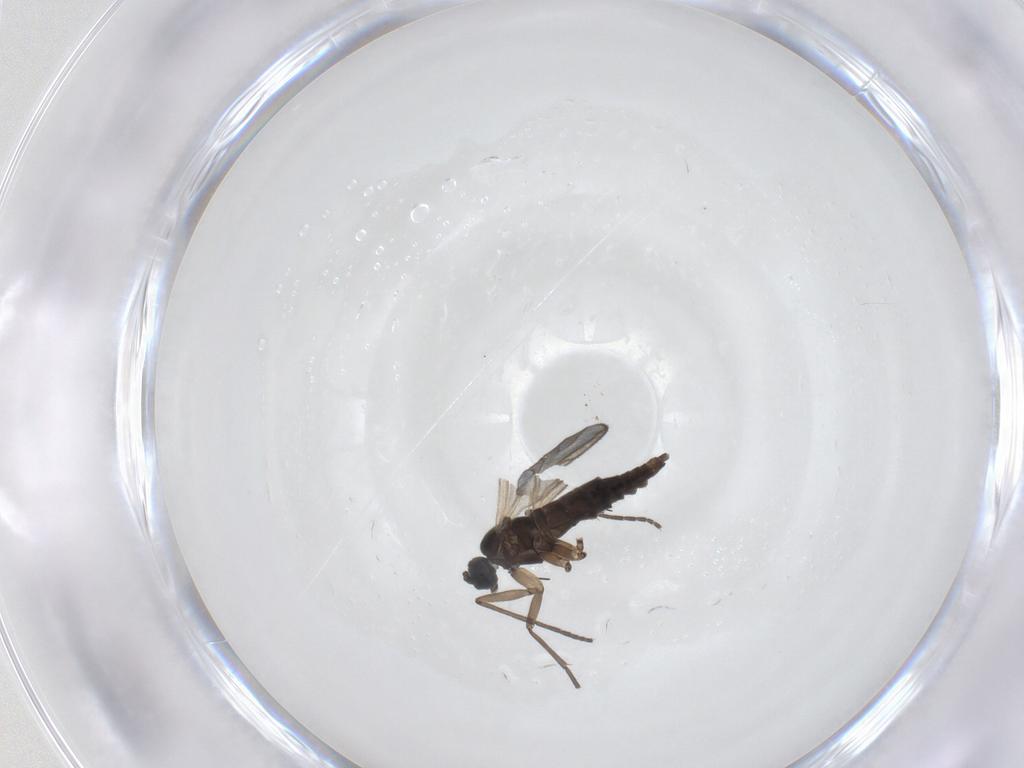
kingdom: Animalia
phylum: Arthropoda
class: Insecta
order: Diptera
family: Sciaridae
